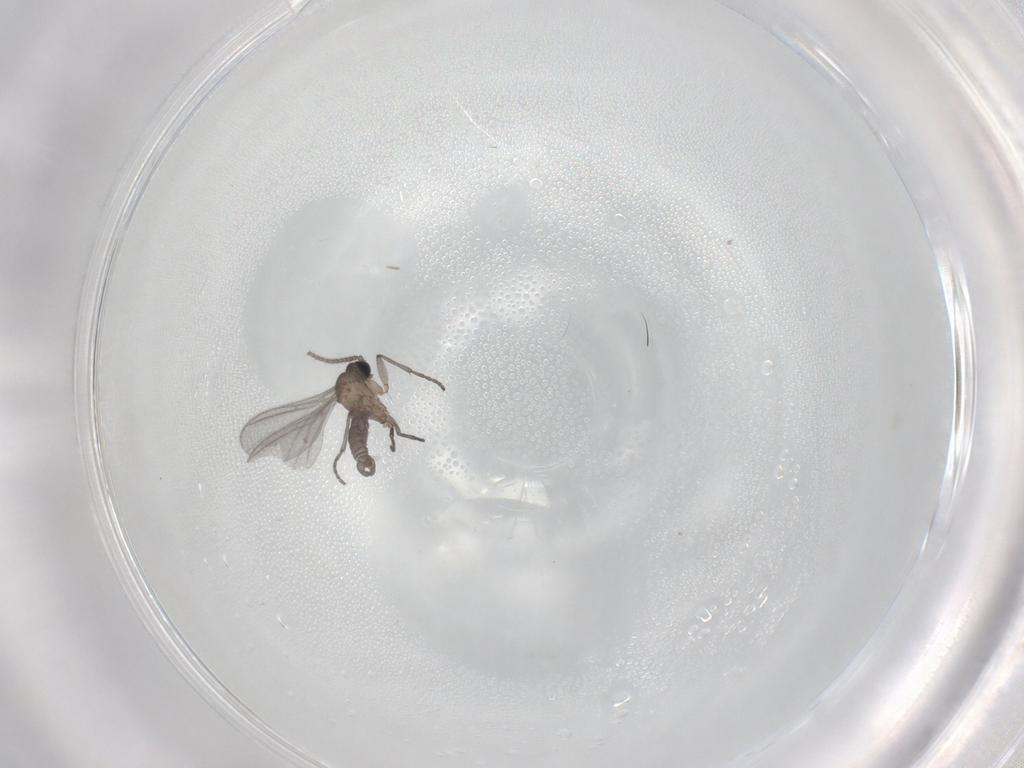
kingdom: Animalia
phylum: Arthropoda
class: Insecta
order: Diptera
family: Sciaridae
